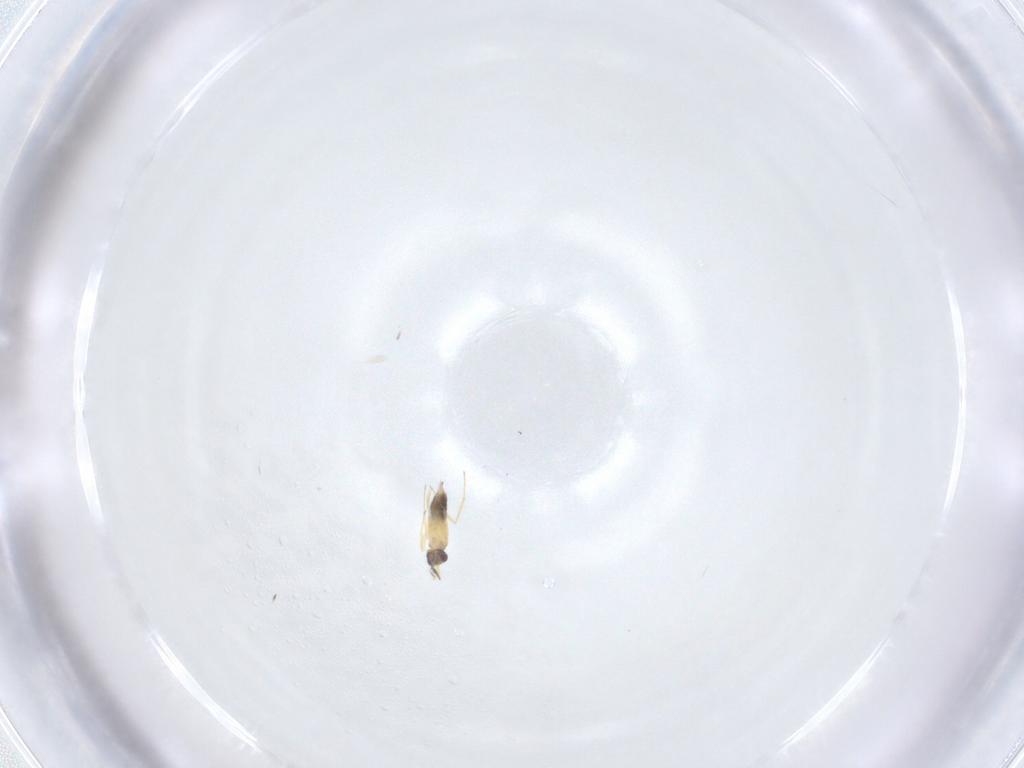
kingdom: Animalia
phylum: Arthropoda
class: Insecta
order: Hymenoptera
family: Mymaridae
